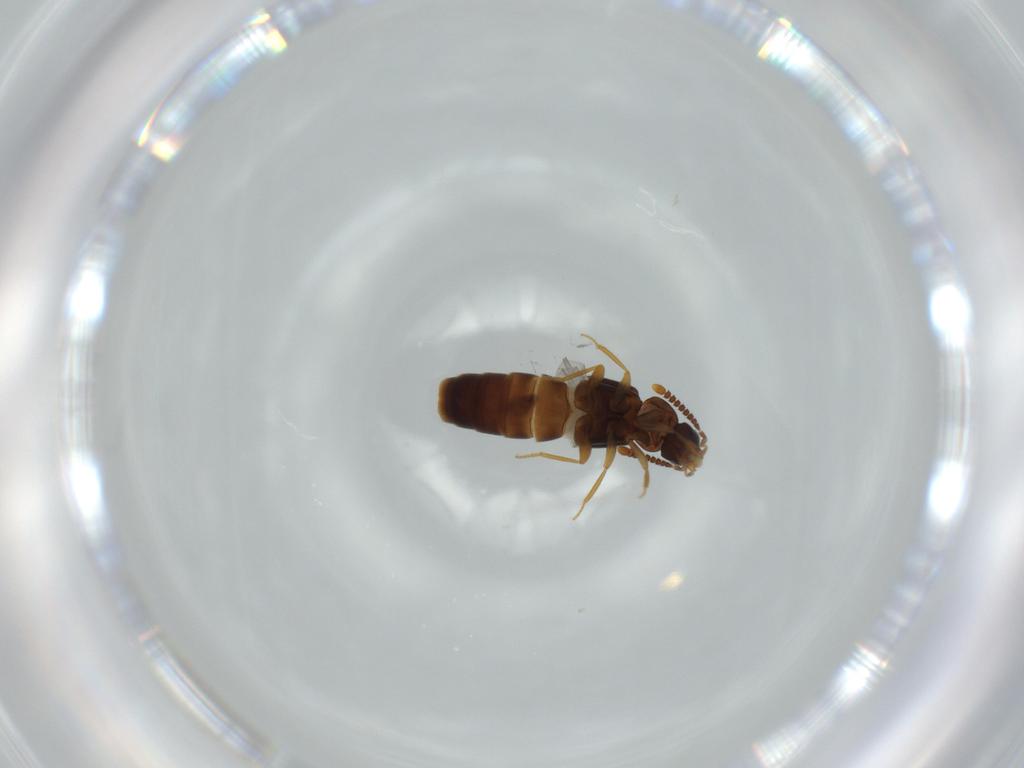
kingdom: Animalia
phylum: Arthropoda
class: Insecta
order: Coleoptera
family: Staphylinidae
